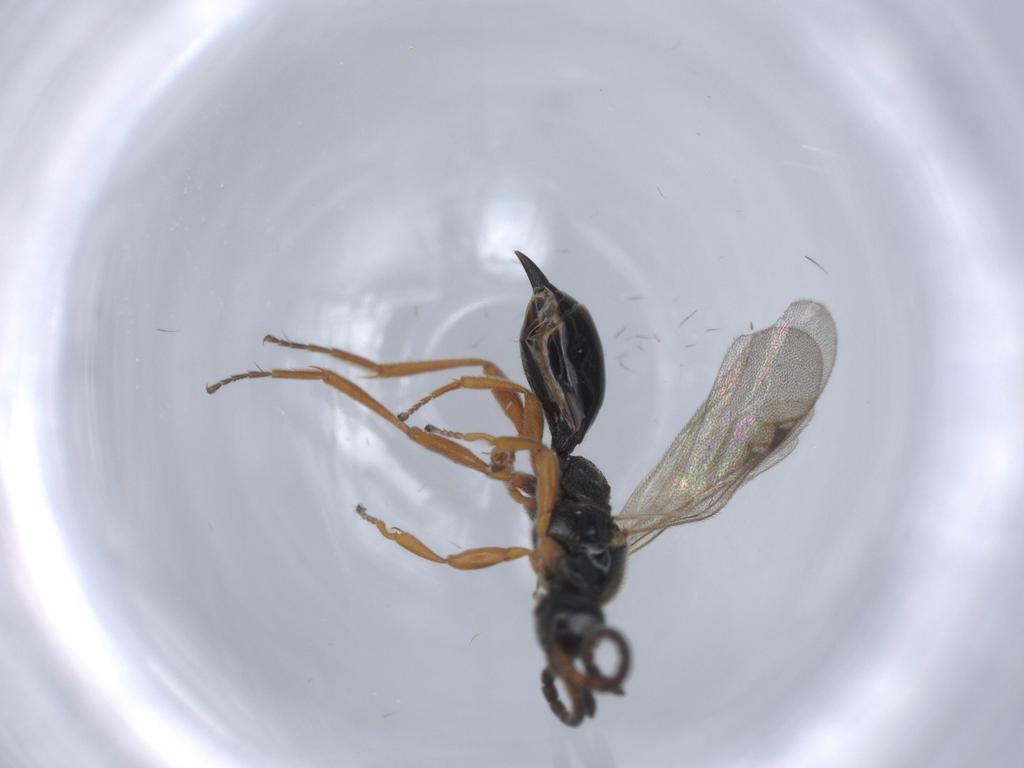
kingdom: Animalia
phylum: Arthropoda
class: Insecta
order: Hymenoptera
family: Proctotrupidae
